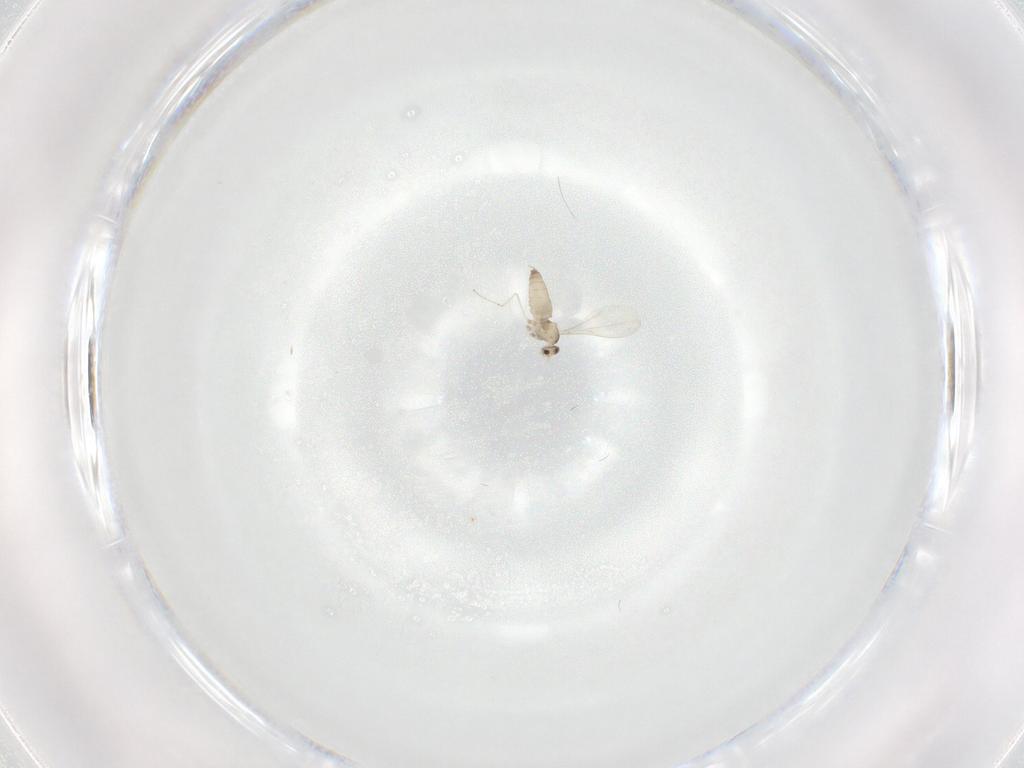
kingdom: Animalia
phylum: Arthropoda
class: Insecta
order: Diptera
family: Cecidomyiidae
